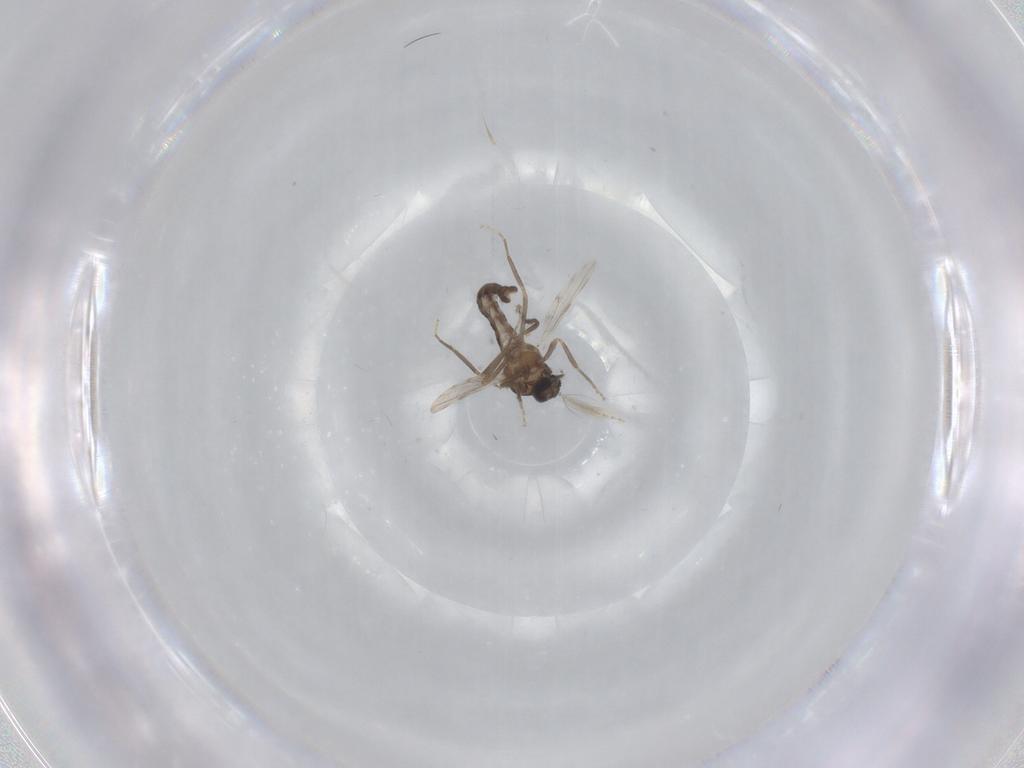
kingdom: Animalia
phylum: Arthropoda
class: Insecta
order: Diptera
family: Ceratopogonidae
